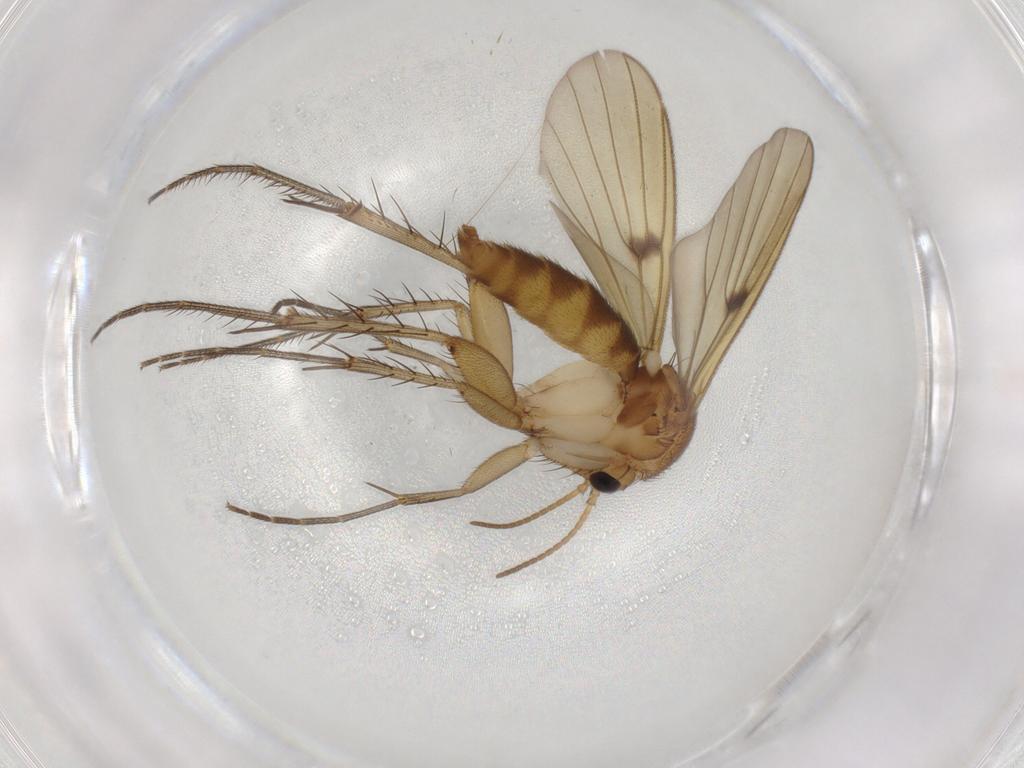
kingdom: Animalia
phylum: Arthropoda
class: Insecta
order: Diptera
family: Mycetophilidae
